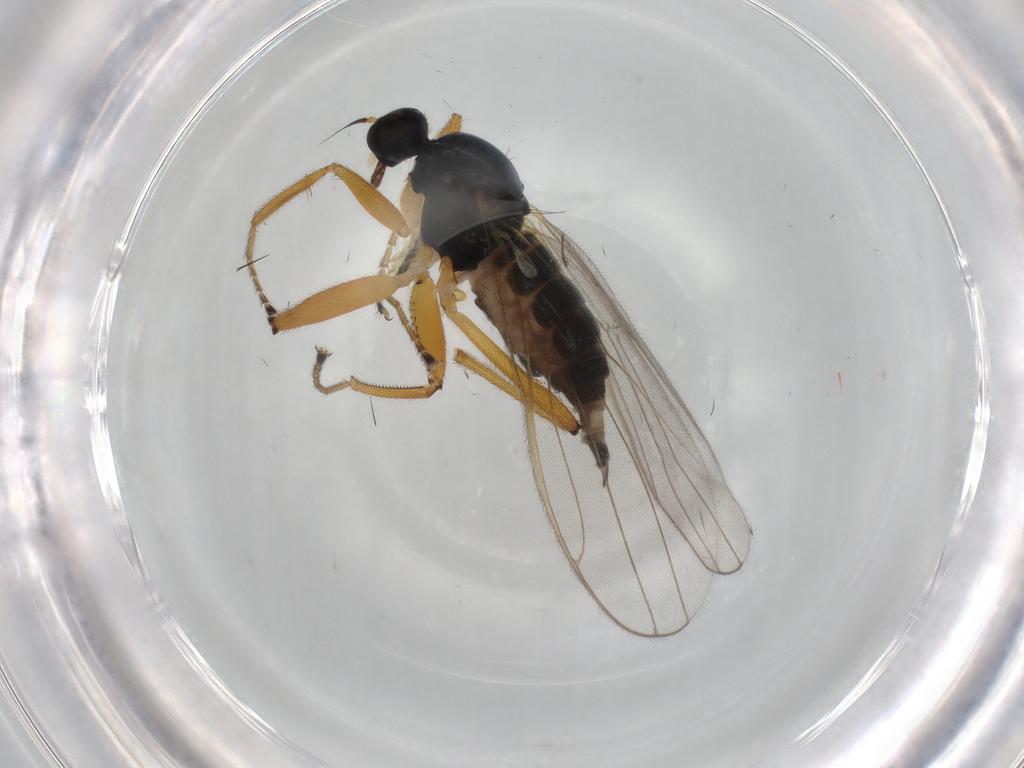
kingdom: Animalia
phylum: Arthropoda
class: Insecta
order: Diptera
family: Hybotidae
